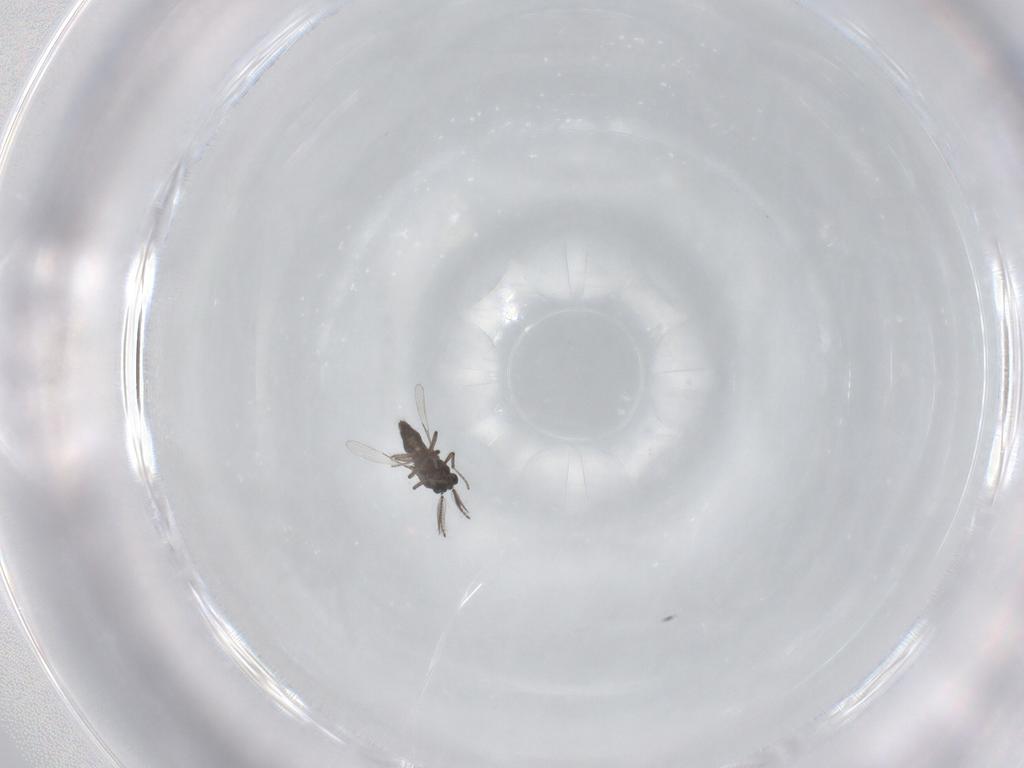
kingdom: Animalia
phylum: Arthropoda
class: Insecta
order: Diptera
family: Ceratopogonidae
